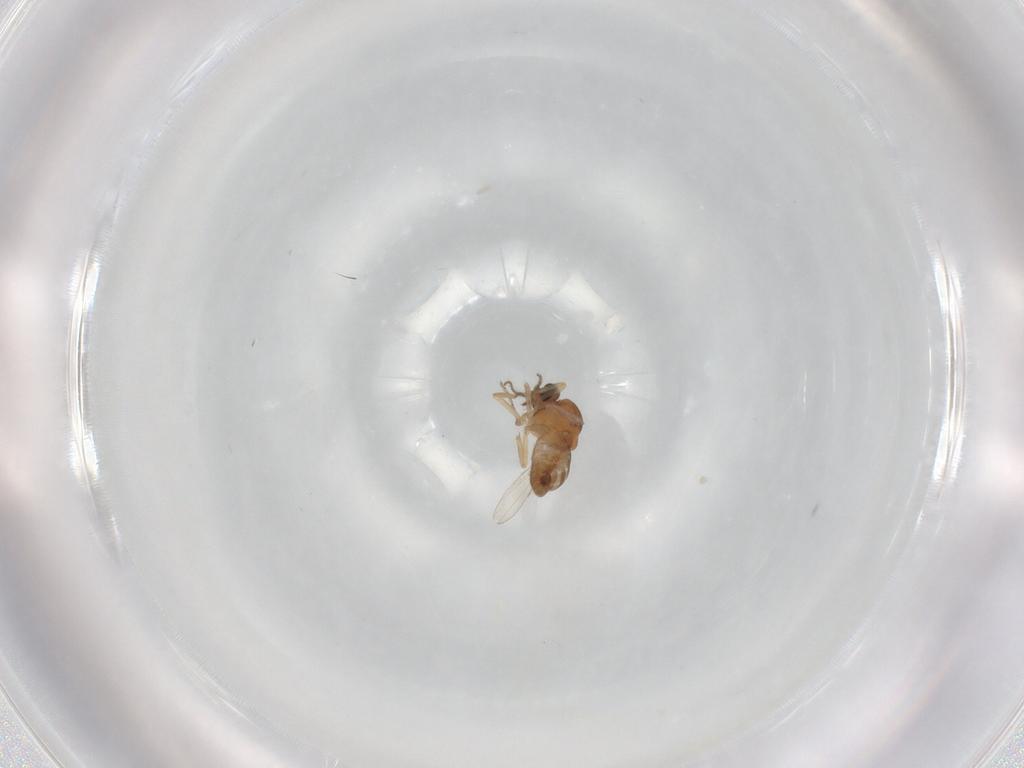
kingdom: Animalia
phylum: Arthropoda
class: Insecta
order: Diptera
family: Ceratopogonidae
